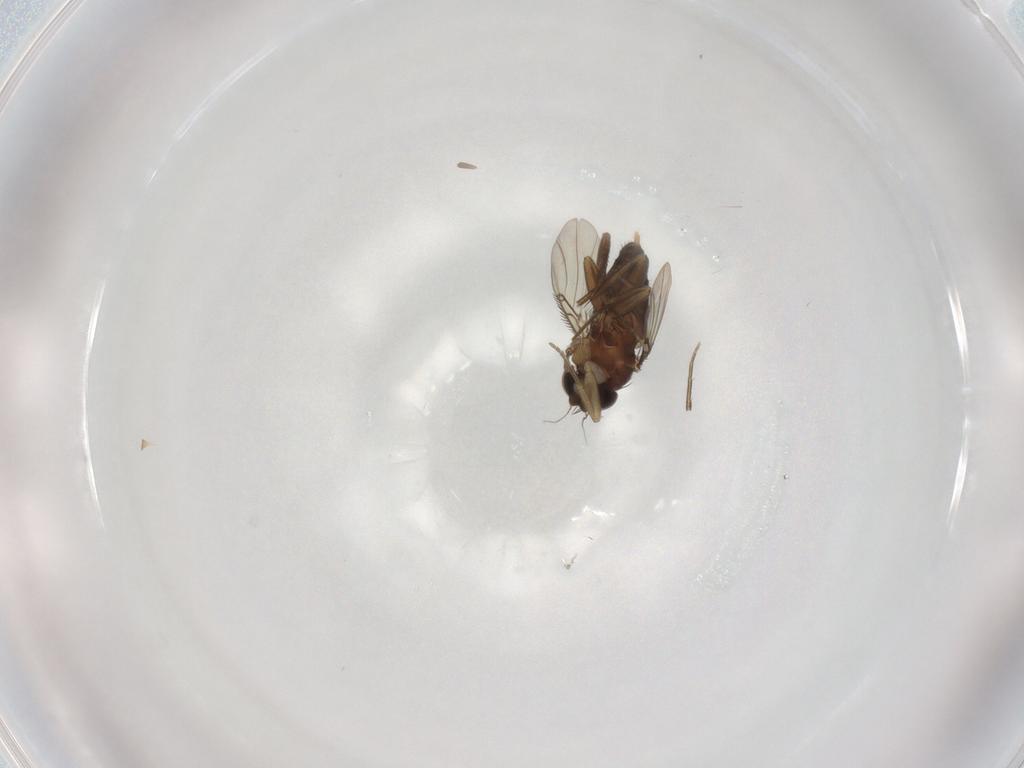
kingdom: Animalia
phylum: Arthropoda
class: Insecta
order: Diptera
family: Phoridae
